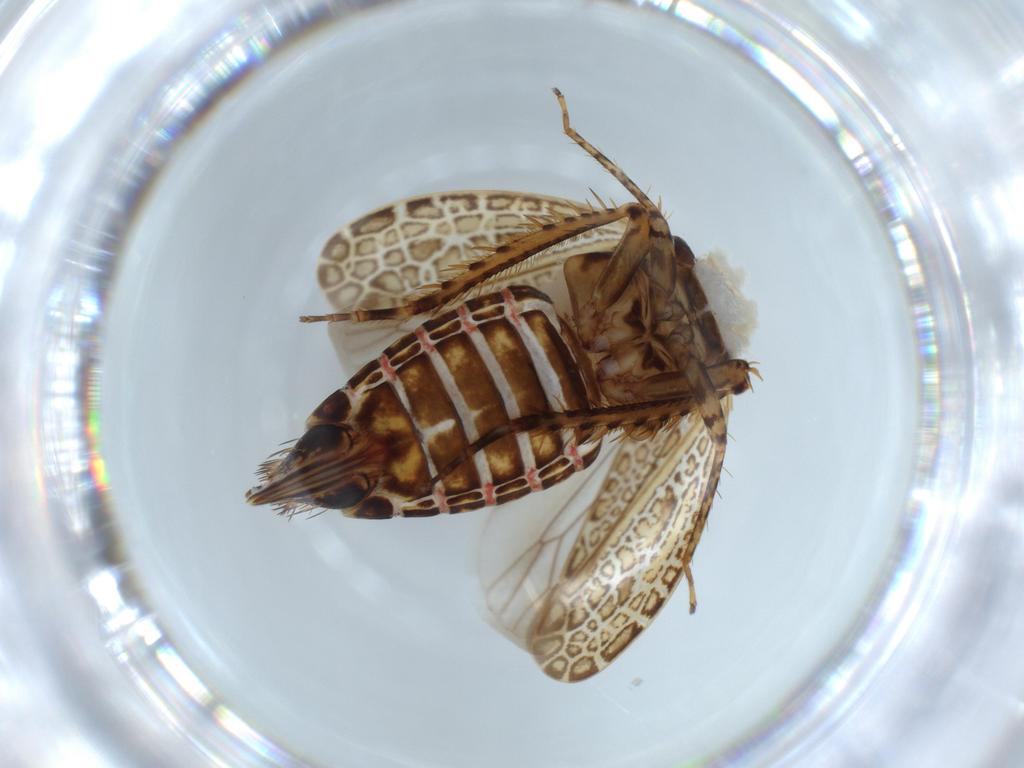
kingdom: Animalia
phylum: Arthropoda
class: Insecta
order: Hemiptera
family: Cicadellidae
